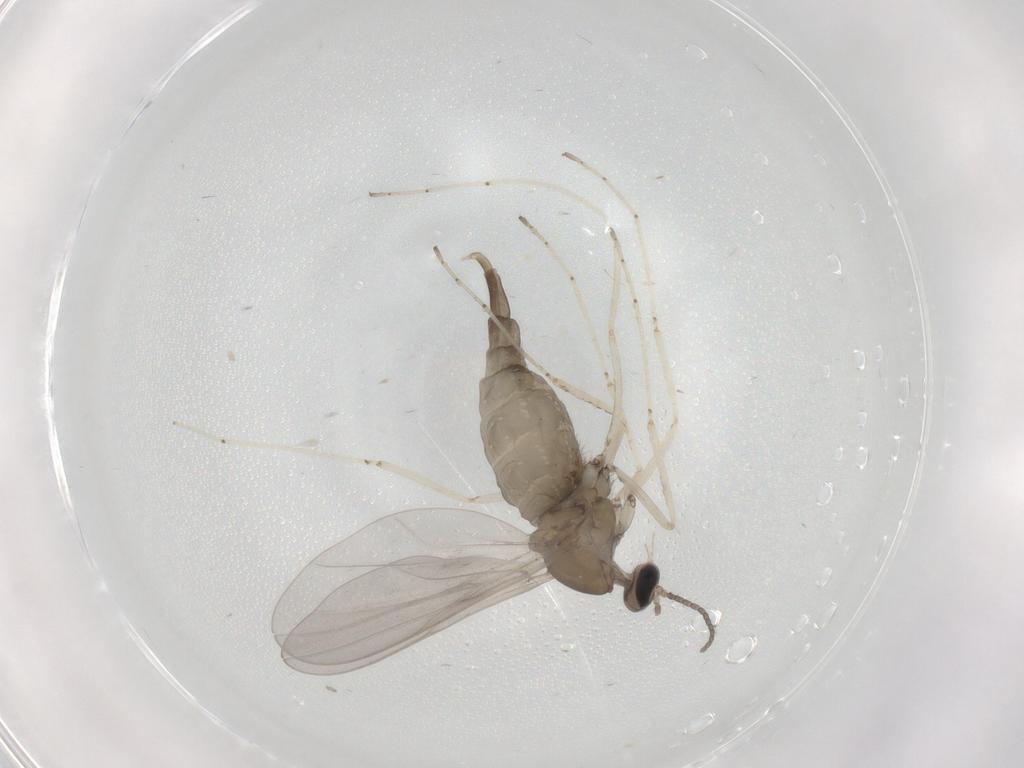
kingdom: Animalia
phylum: Arthropoda
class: Insecta
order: Diptera
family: Cecidomyiidae
